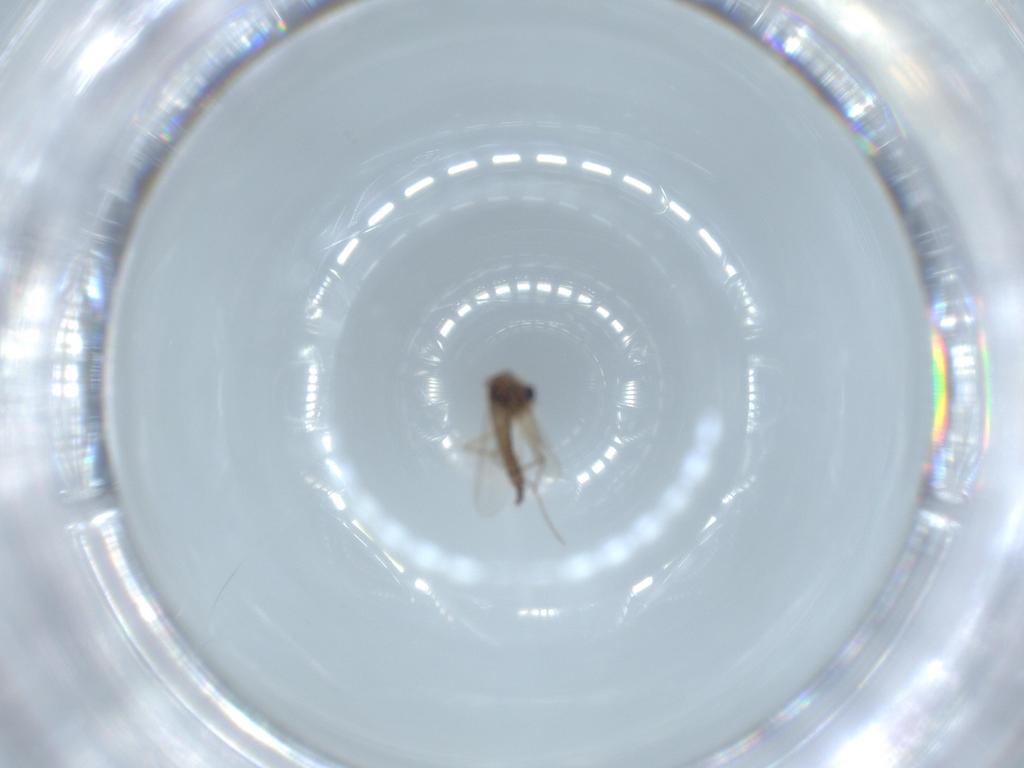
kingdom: Animalia
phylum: Arthropoda
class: Insecta
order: Diptera
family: Chironomidae
